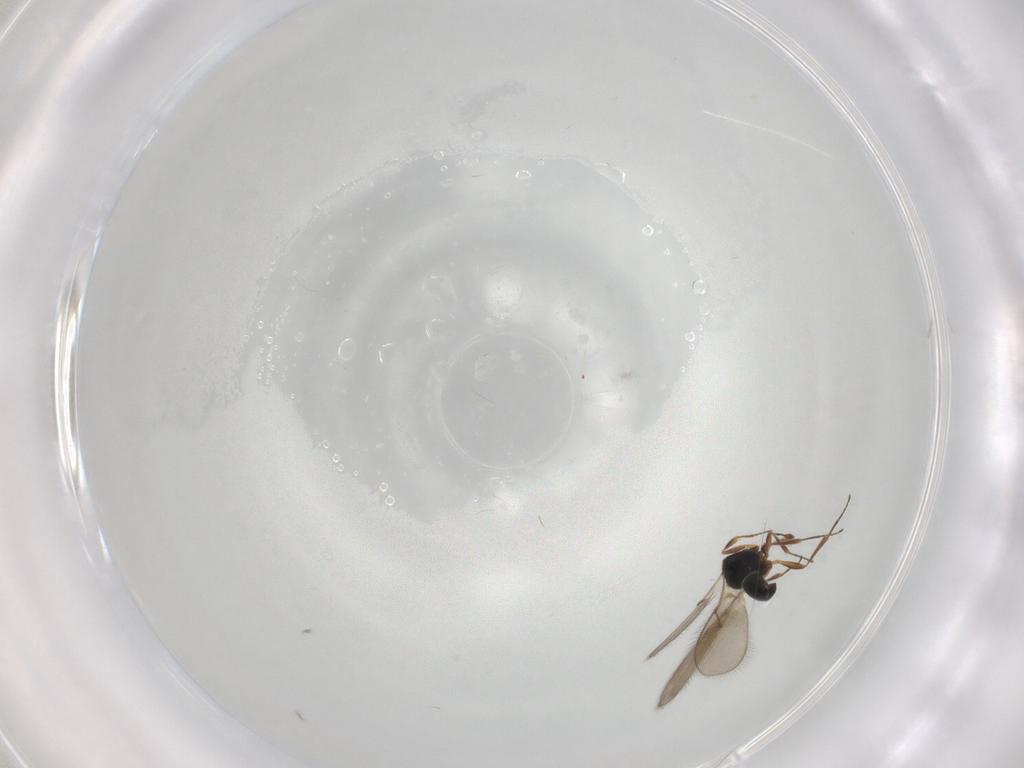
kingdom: Animalia
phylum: Arthropoda
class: Insecta
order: Hymenoptera
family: Scelionidae
